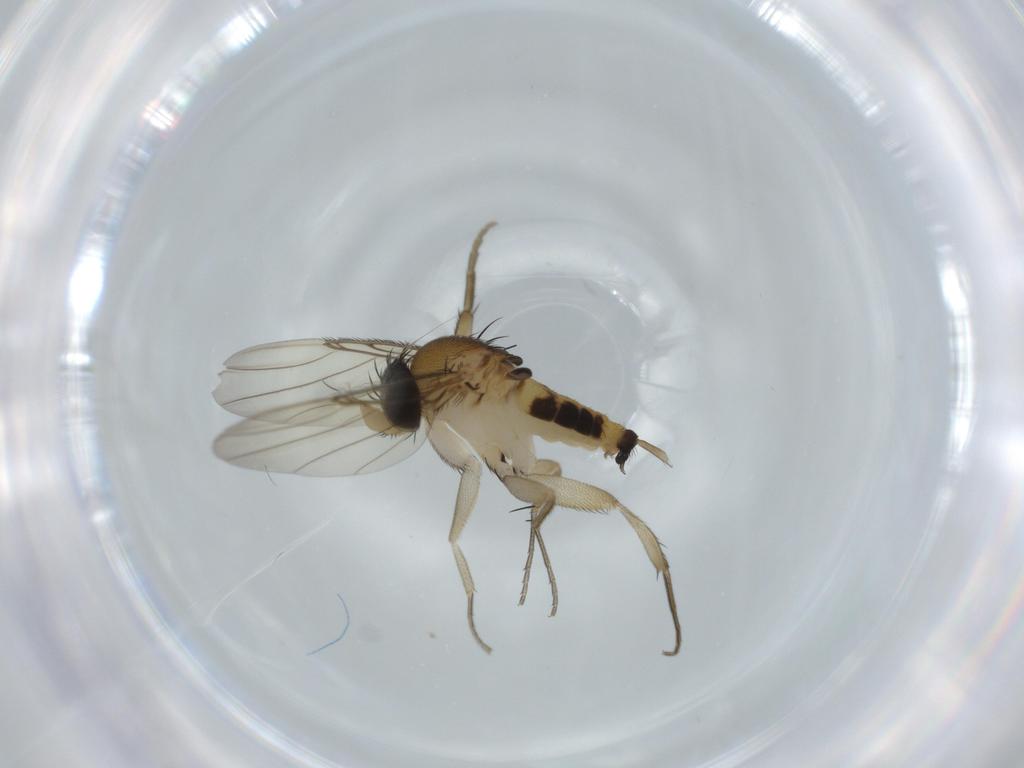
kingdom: Animalia
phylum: Arthropoda
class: Insecta
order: Diptera
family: Phoridae
